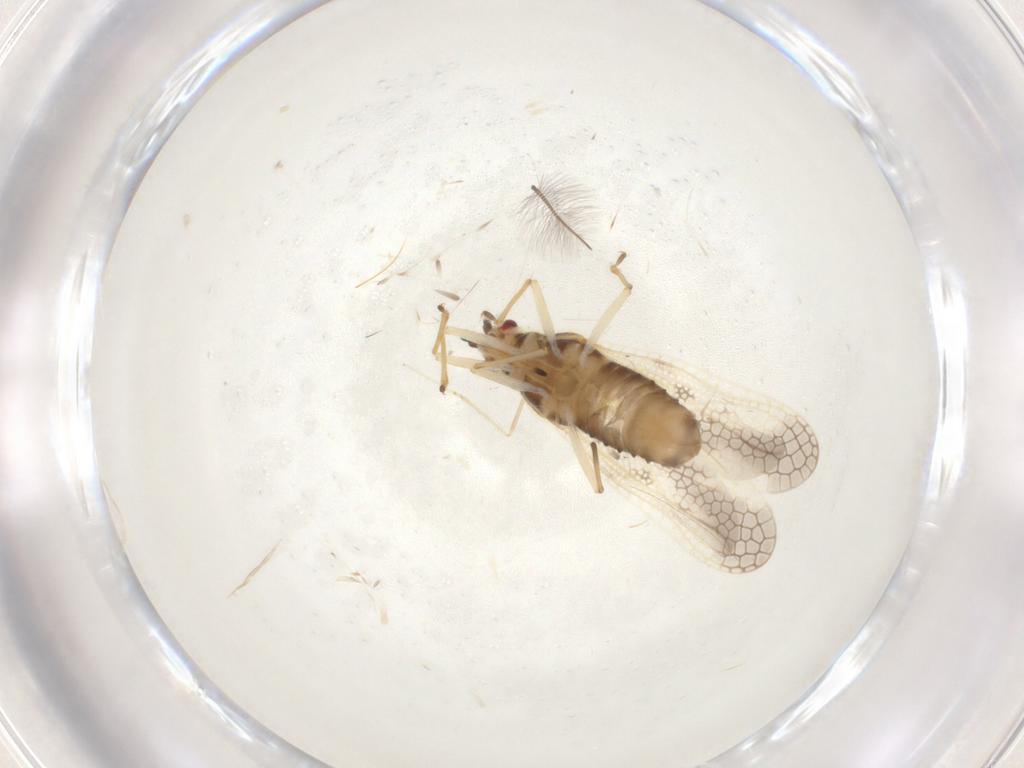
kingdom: Animalia
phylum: Arthropoda
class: Insecta
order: Hemiptera
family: Tingidae
